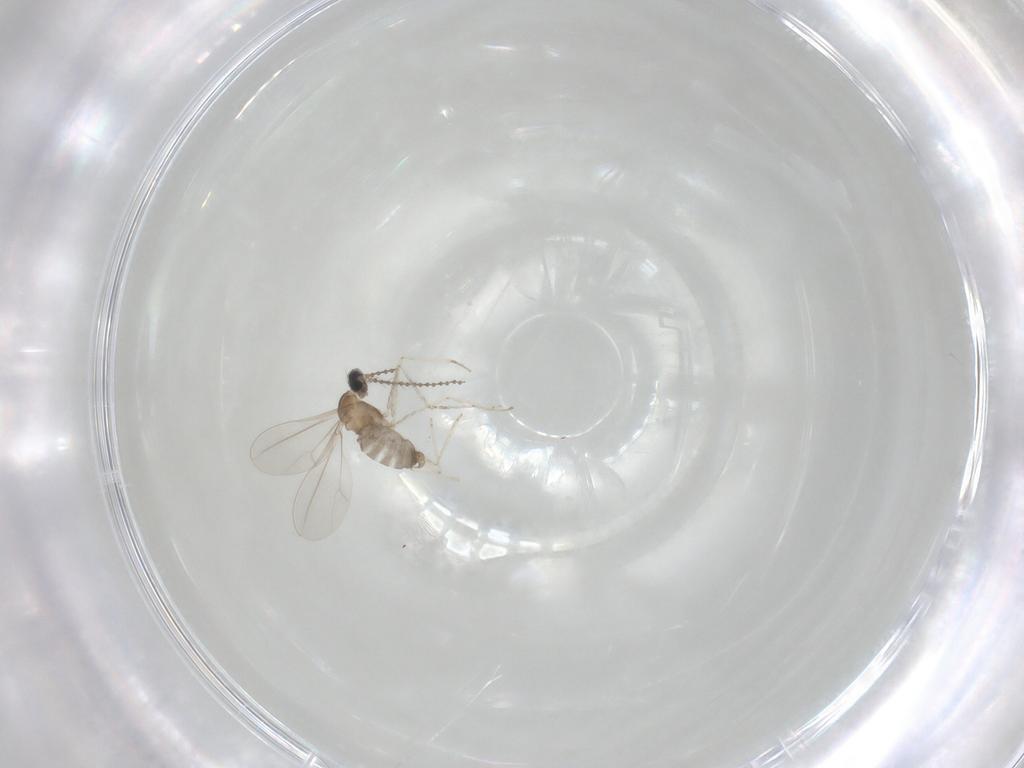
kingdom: Animalia
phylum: Arthropoda
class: Insecta
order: Diptera
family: Cecidomyiidae
